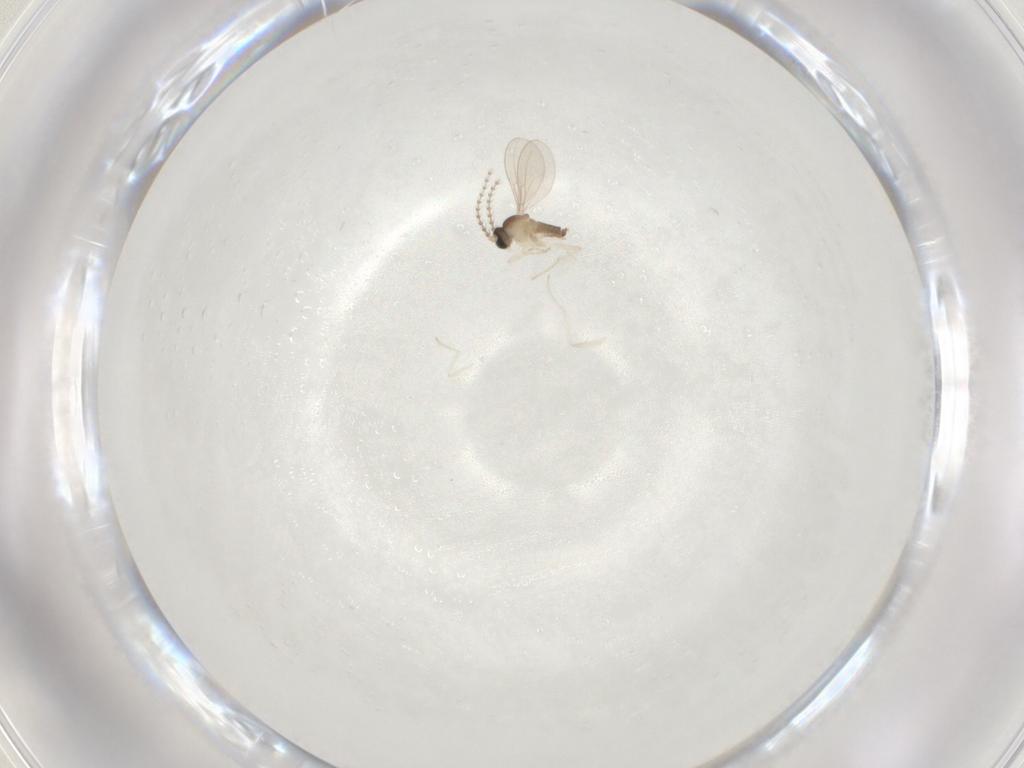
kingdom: Animalia
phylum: Arthropoda
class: Insecta
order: Diptera
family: Cecidomyiidae
